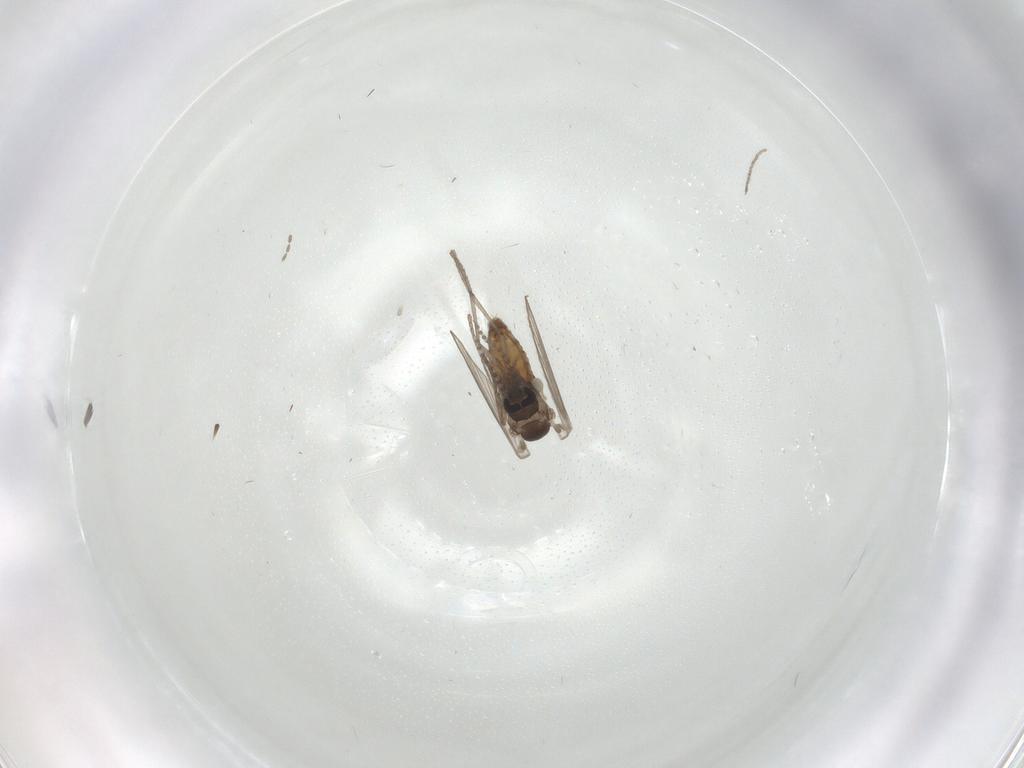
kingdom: Animalia
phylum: Arthropoda
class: Insecta
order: Diptera
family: Psychodidae
